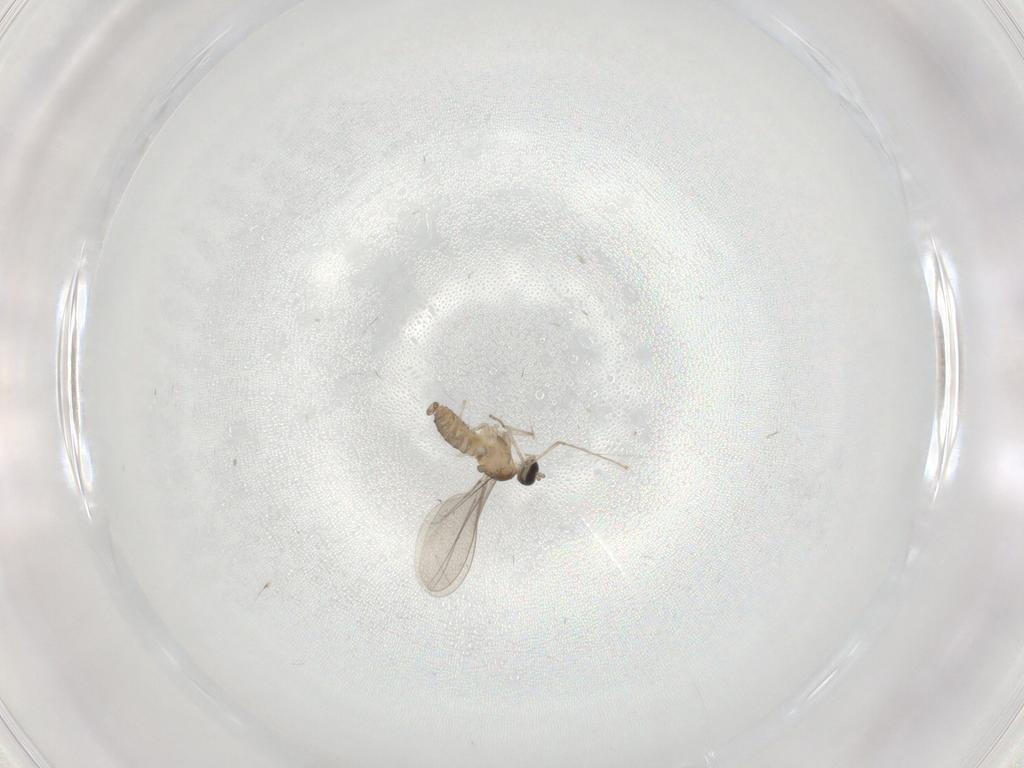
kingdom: Animalia
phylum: Arthropoda
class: Insecta
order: Diptera
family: Cecidomyiidae
